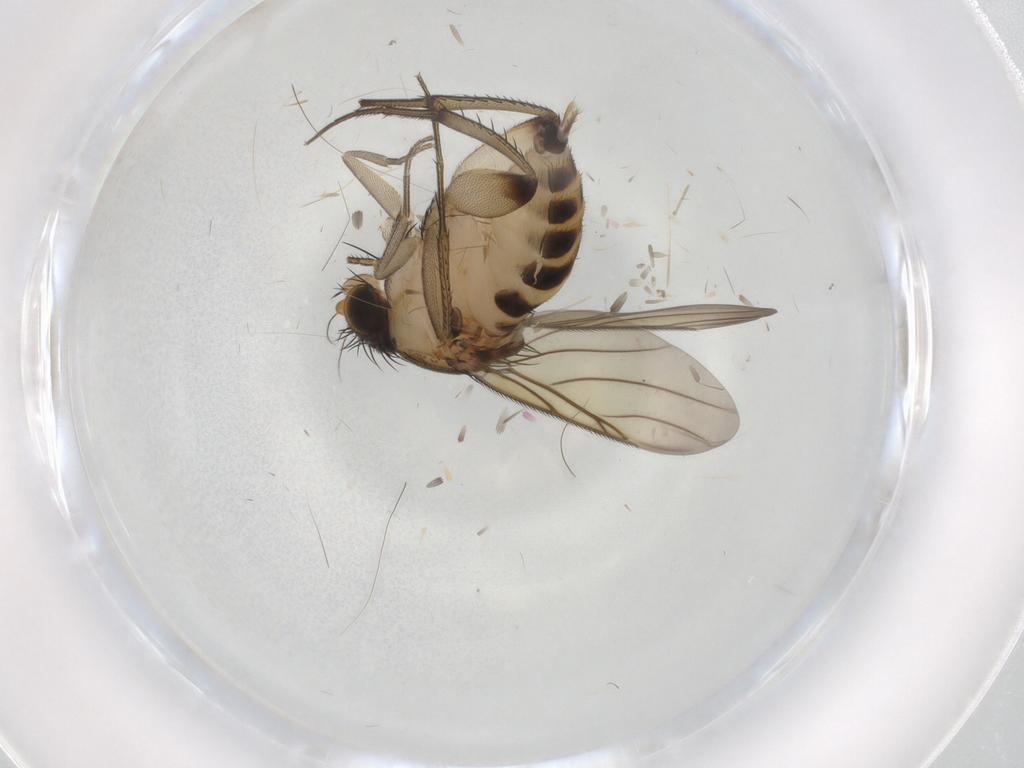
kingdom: Animalia
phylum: Arthropoda
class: Insecta
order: Diptera
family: Phoridae
